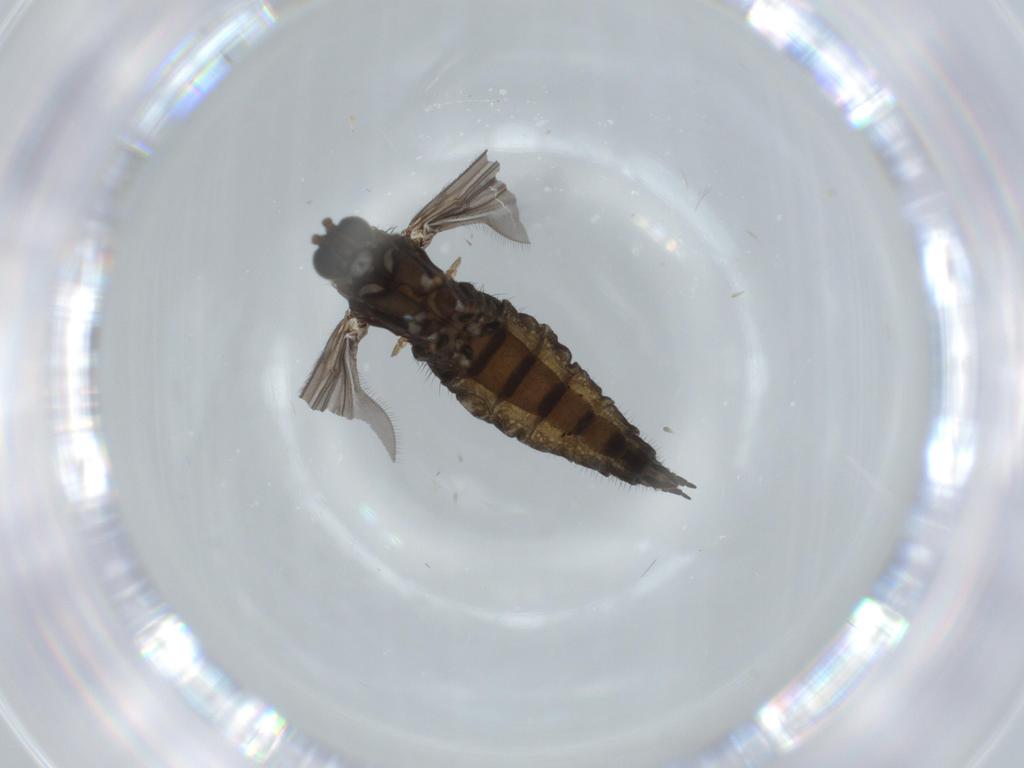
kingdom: Animalia
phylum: Arthropoda
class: Insecta
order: Diptera
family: Sciaridae
